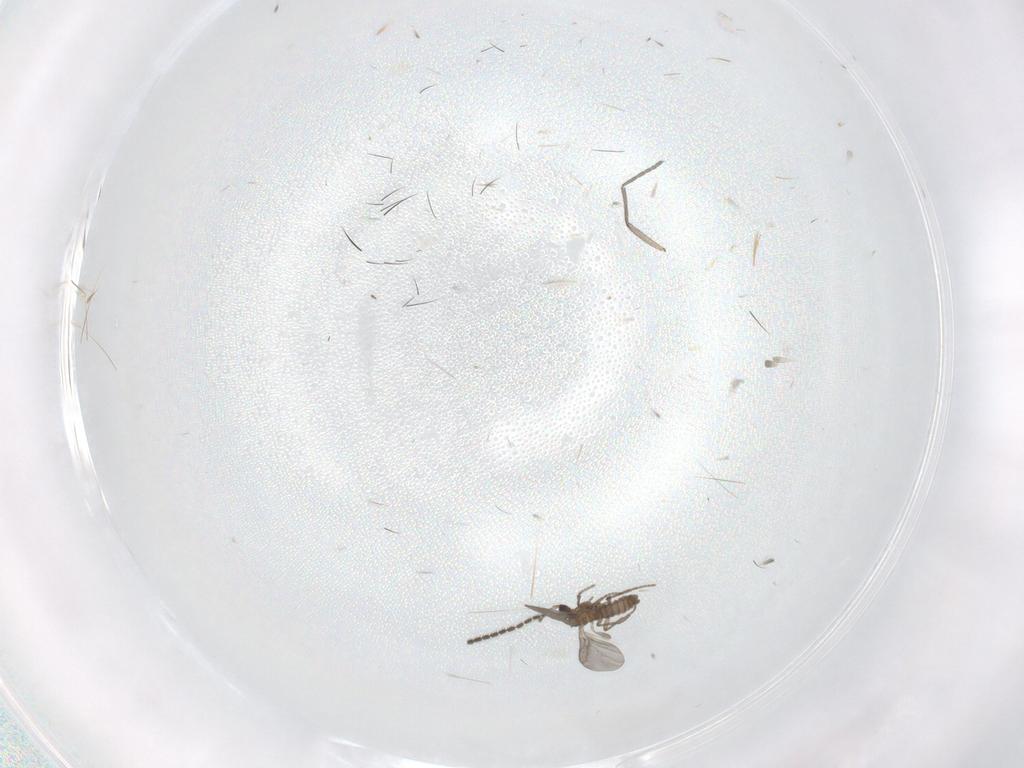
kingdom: Animalia
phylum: Arthropoda
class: Insecta
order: Diptera
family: Sciaridae
